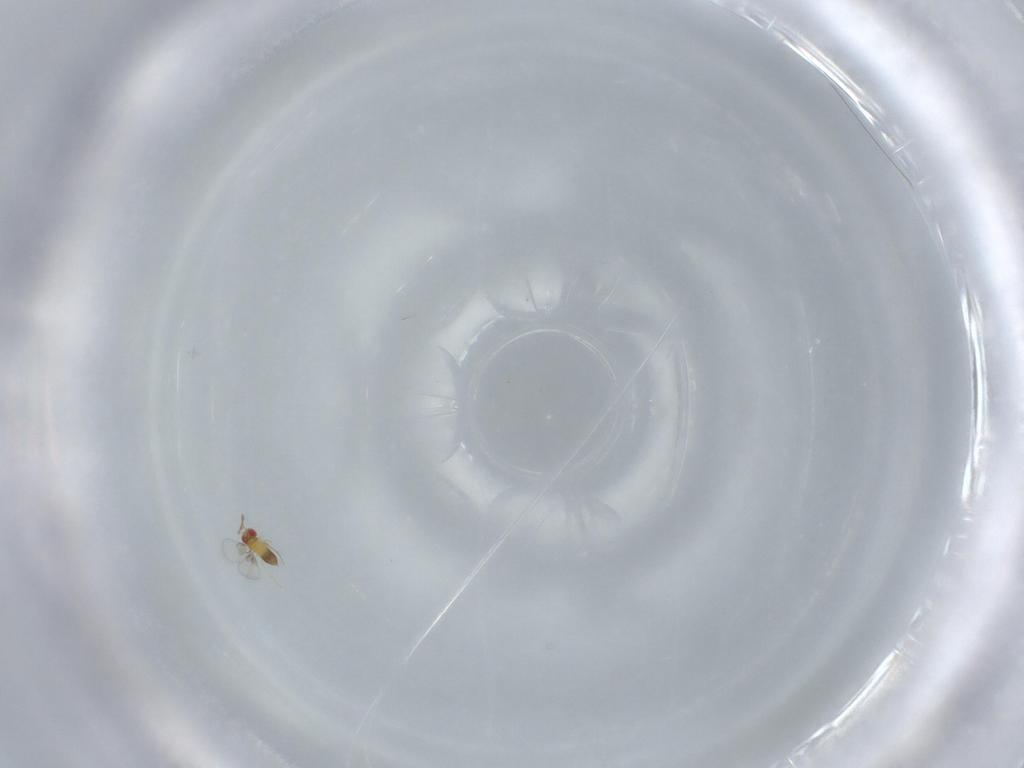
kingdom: Animalia
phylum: Arthropoda
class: Insecta
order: Hymenoptera
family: Trichogrammatidae
